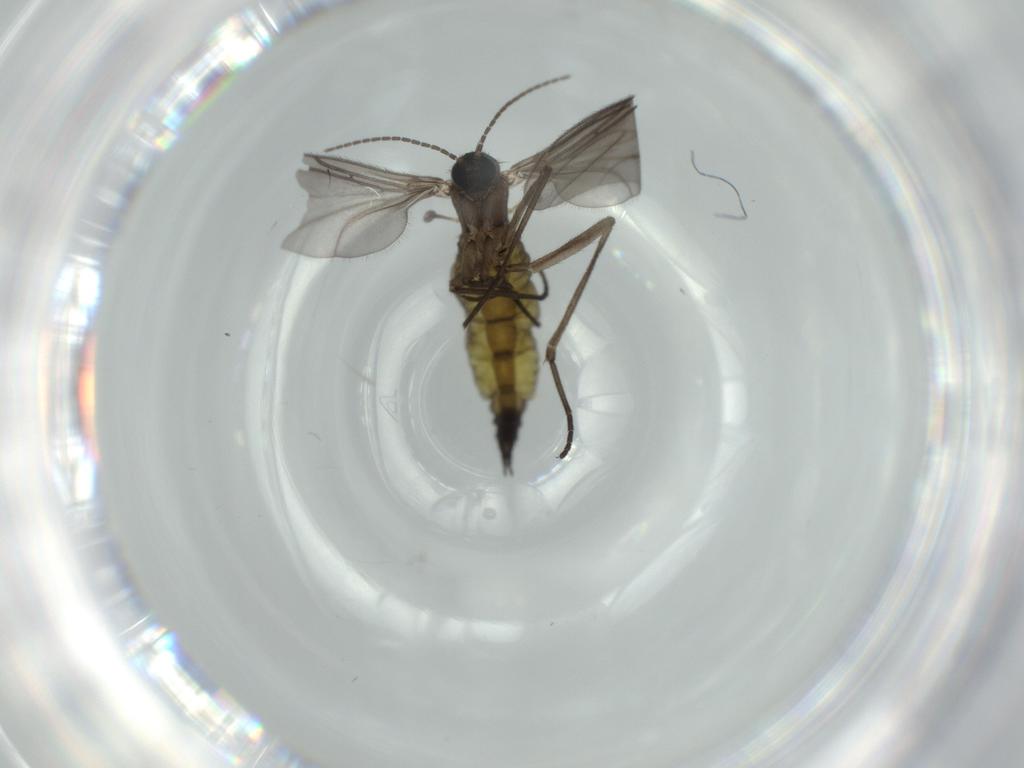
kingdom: Animalia
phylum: Arthropoda
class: Insecta
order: Diptera
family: Sciaridae
